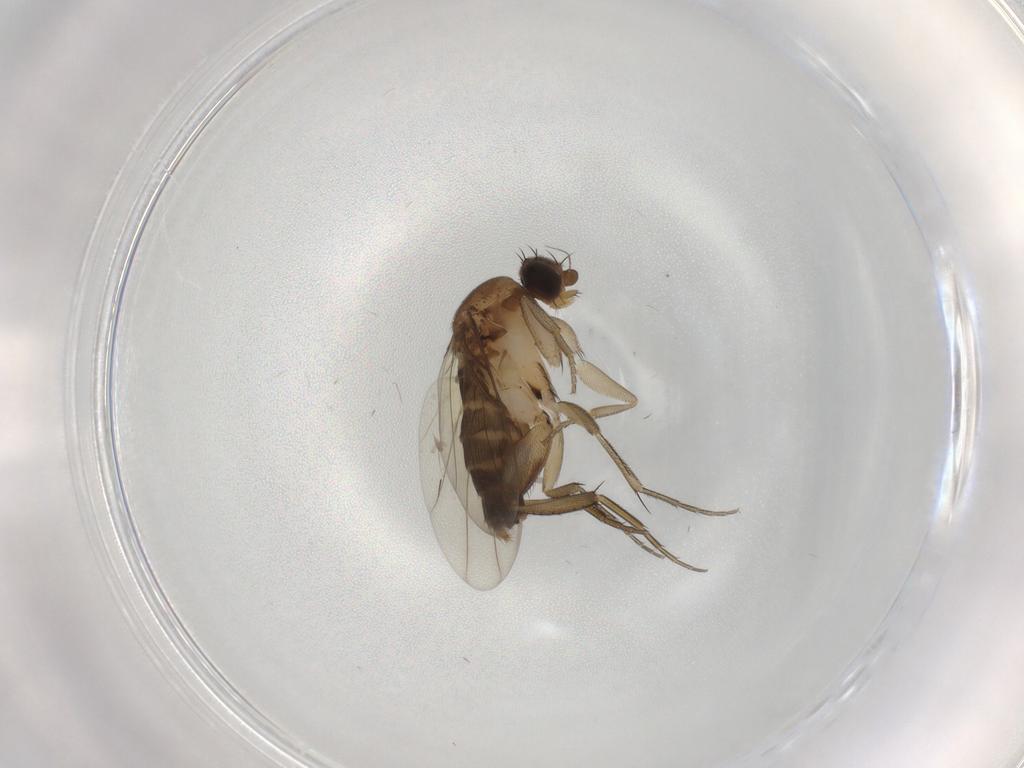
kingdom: Animalia
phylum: Arthropoda
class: Insecta
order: Diptera
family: Phoridae
